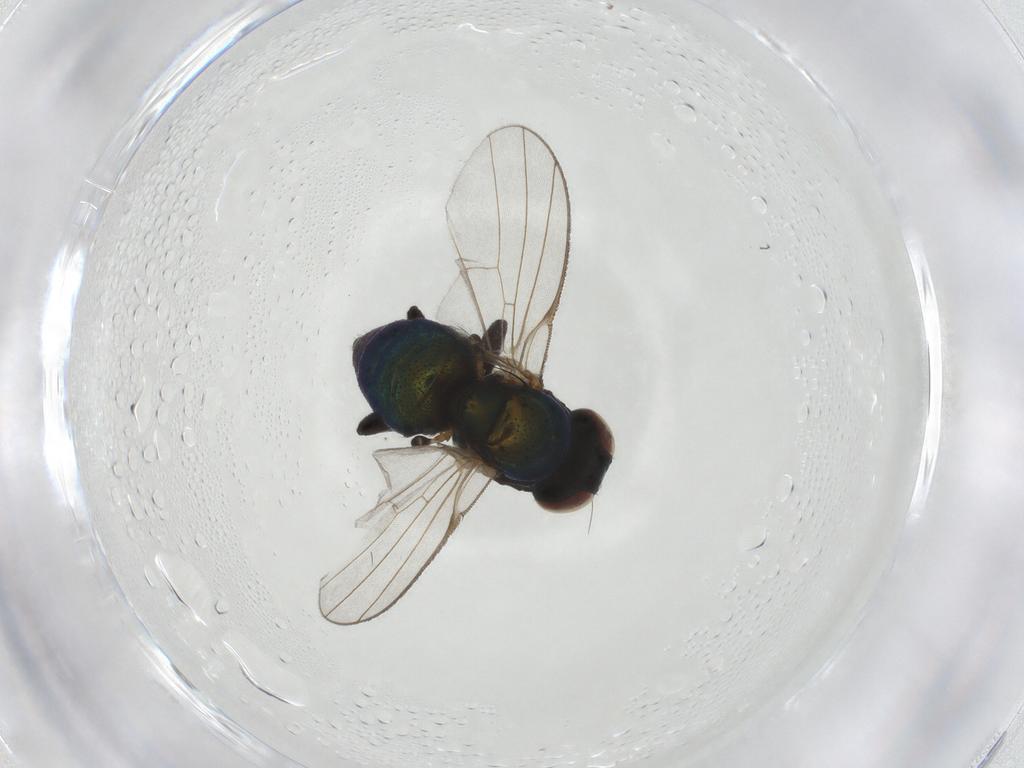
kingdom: Animalia
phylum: Arthropoda
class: Insecta
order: Diptera
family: Agromyzidae
